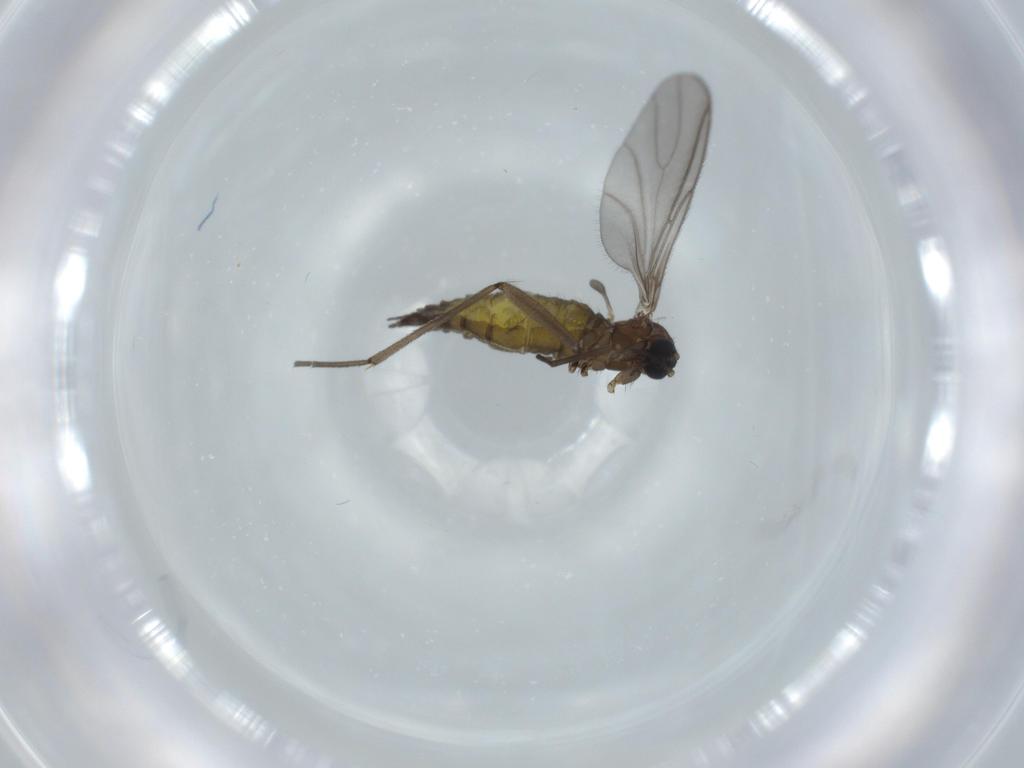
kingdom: Animalia
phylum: Arthropoda
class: Insecta
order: Diptera
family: Sciaridae
